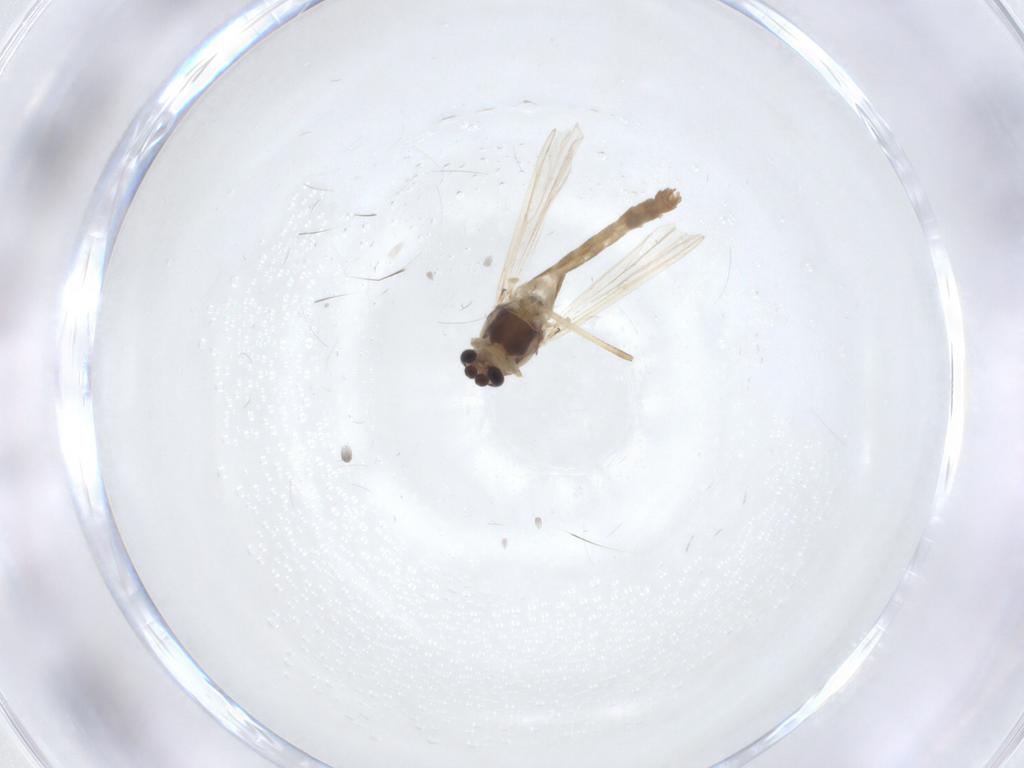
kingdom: Animalia
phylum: Arthropoda
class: Insecta
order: Diptera
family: Chironomidae
